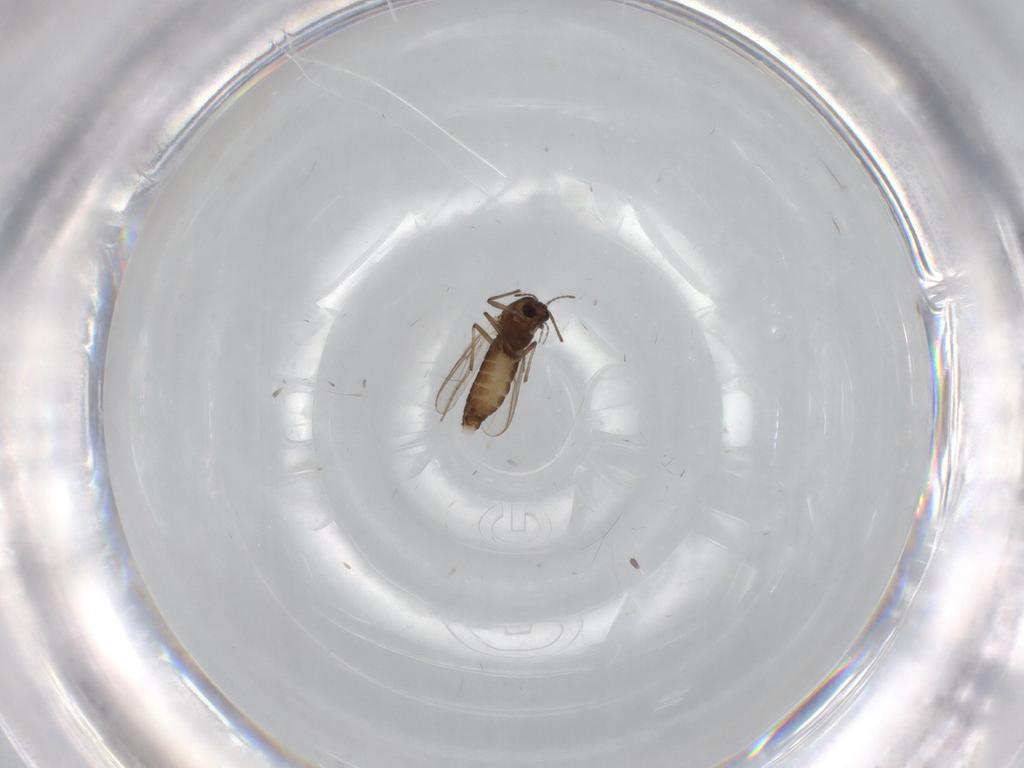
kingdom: Animalia
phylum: Arthropoda
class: Insecta
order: Diptera
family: Chironomidae
